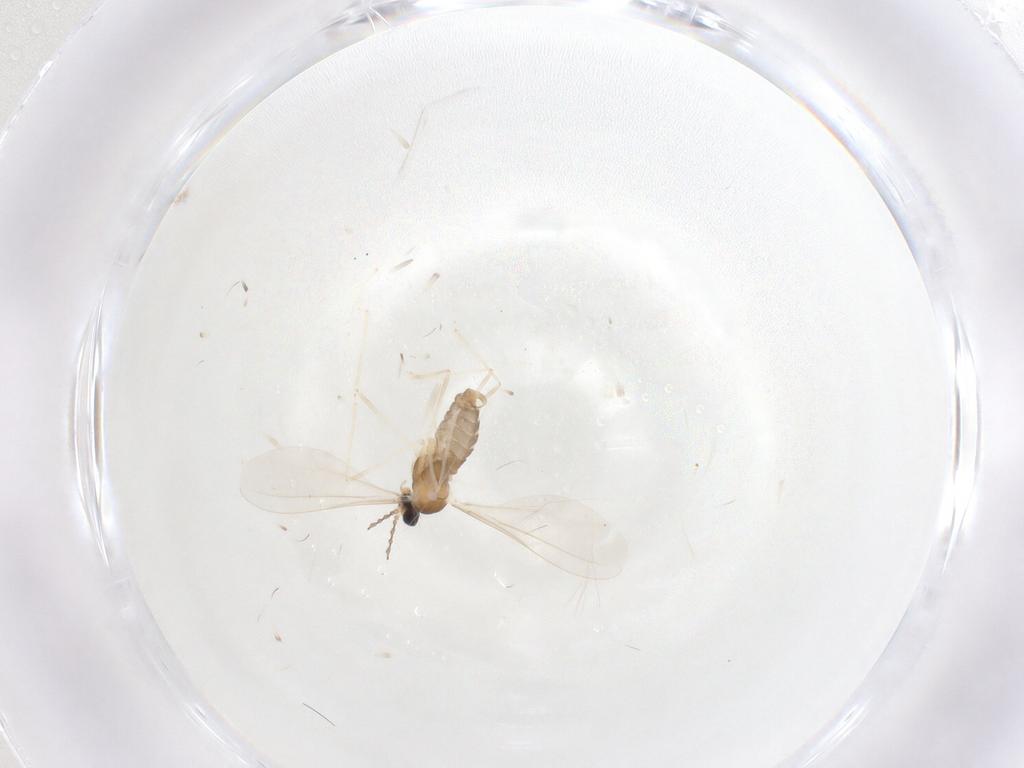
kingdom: Animalia
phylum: Arthropoda
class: Insecta
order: Diptera
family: Cecidomyiidae
